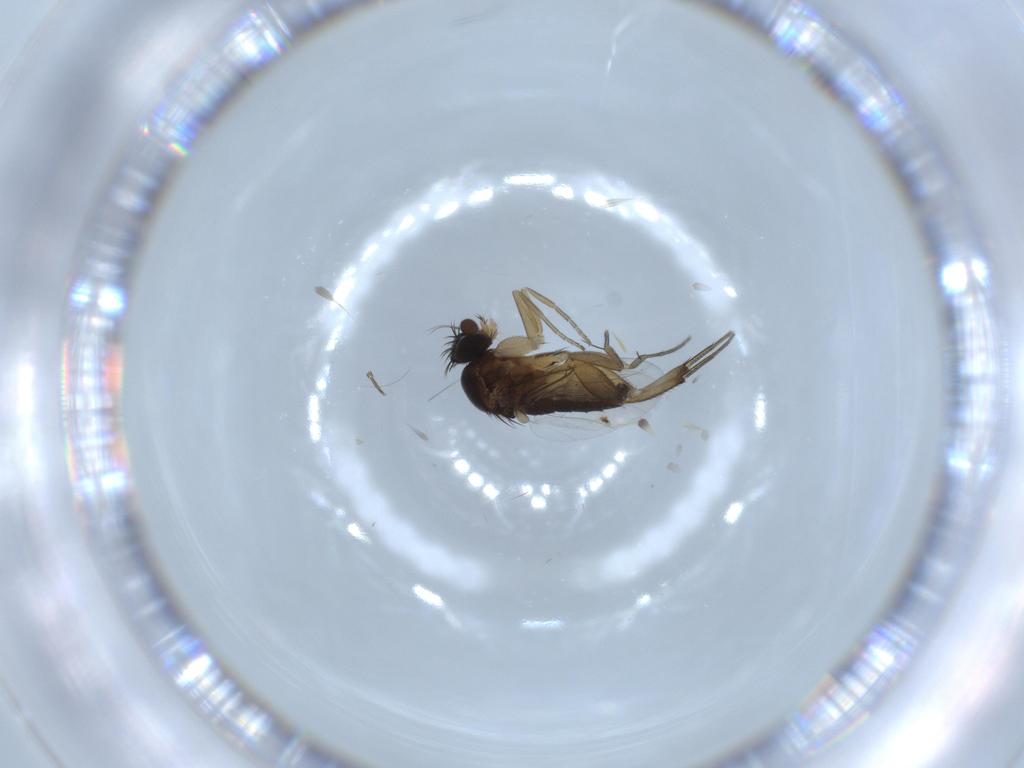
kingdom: Animalia
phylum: Arthropoda
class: Insecta
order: Diptera
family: Phoridae
